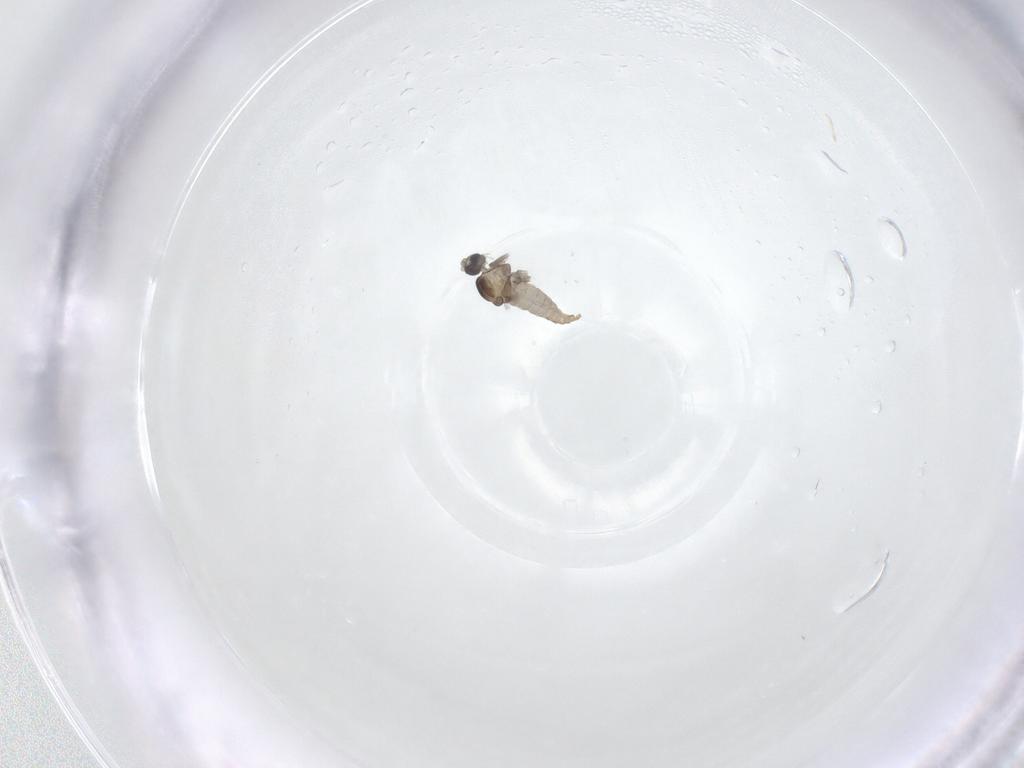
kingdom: Animalia
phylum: Arthropoda
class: Insecta
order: Diptera
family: Cecidomyiidae
